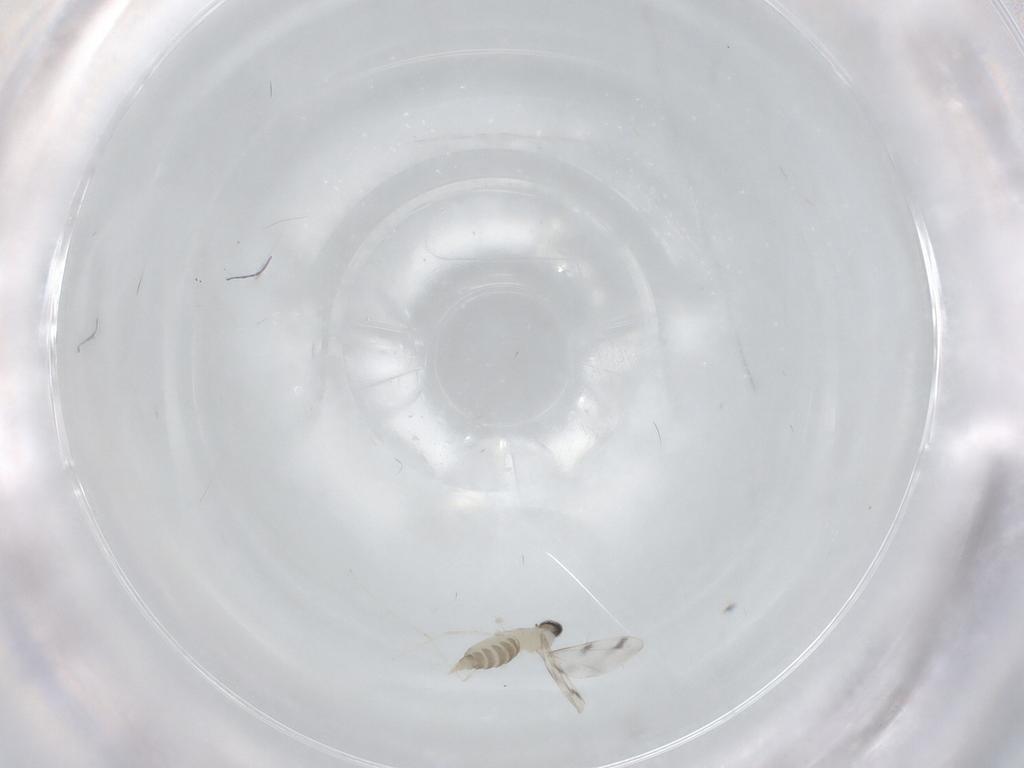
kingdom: Animalia
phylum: Arthropoda
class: Insecta
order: Diptera
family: Cecidomyiidae
